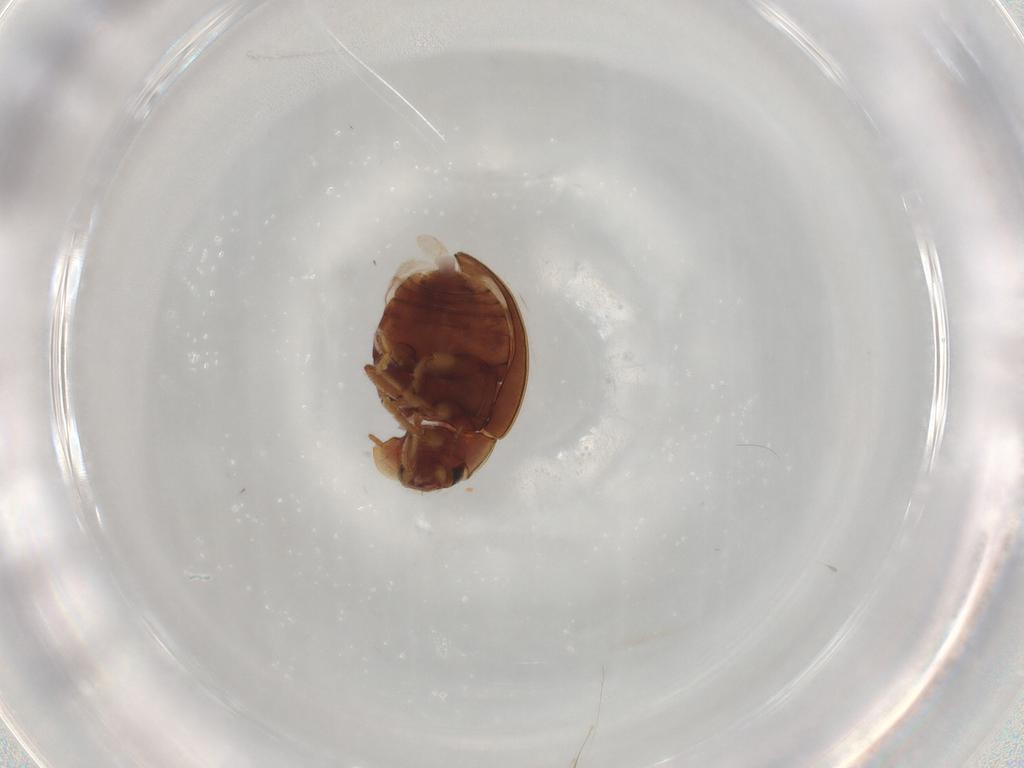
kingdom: Animalia
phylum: Arthropoda
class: Insecta
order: Coleoptera
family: Coccinellidae
